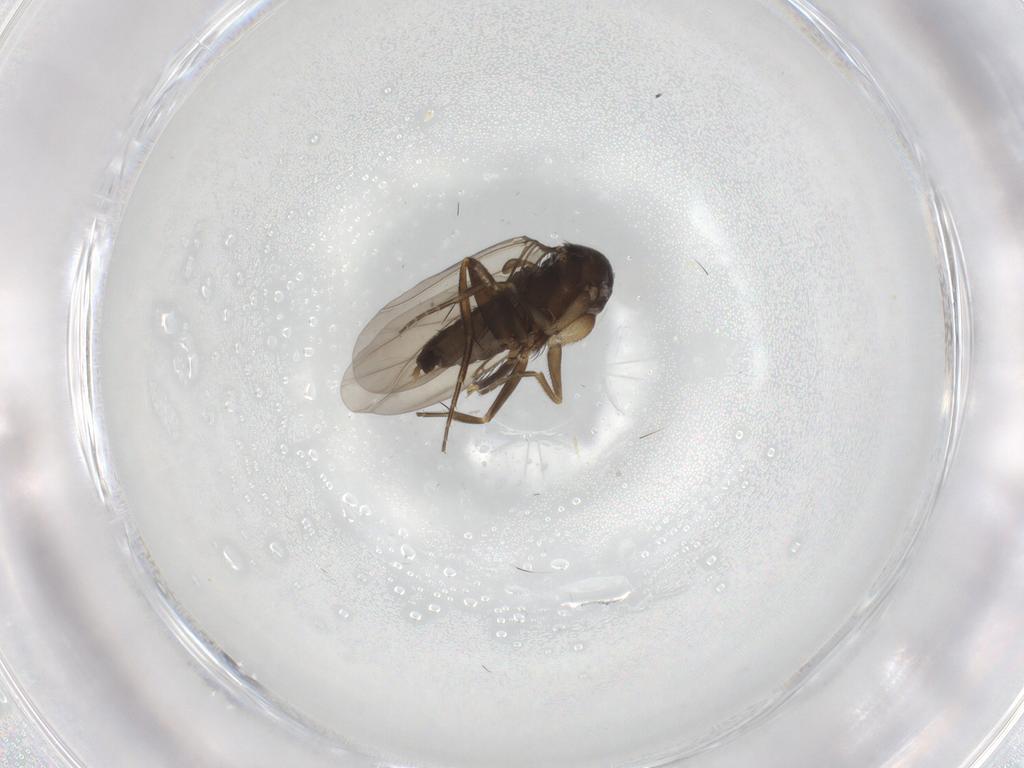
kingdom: Animalia
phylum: Arthropoda
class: Insecta
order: Diptera
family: Phoridae
